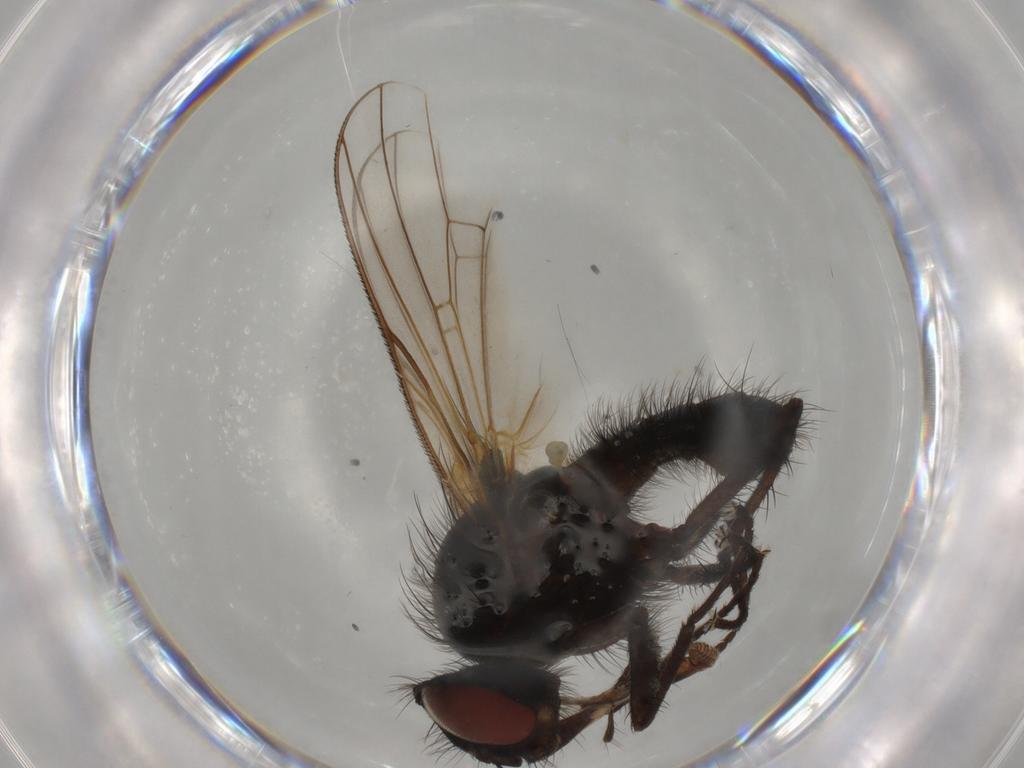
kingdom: Animalia
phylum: Arthropoda
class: Insecta
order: Diptera
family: Anthomyiidae
